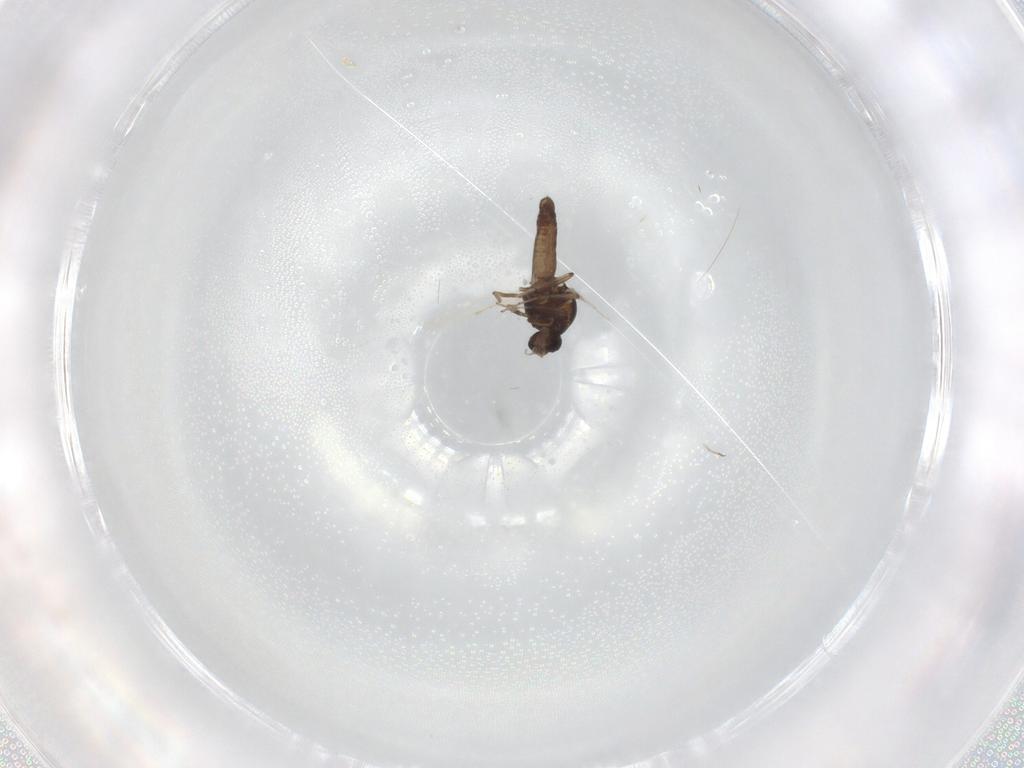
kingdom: Animalia
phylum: Arthropoda
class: Insecta
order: Diptera
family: Ceratopogonidae
